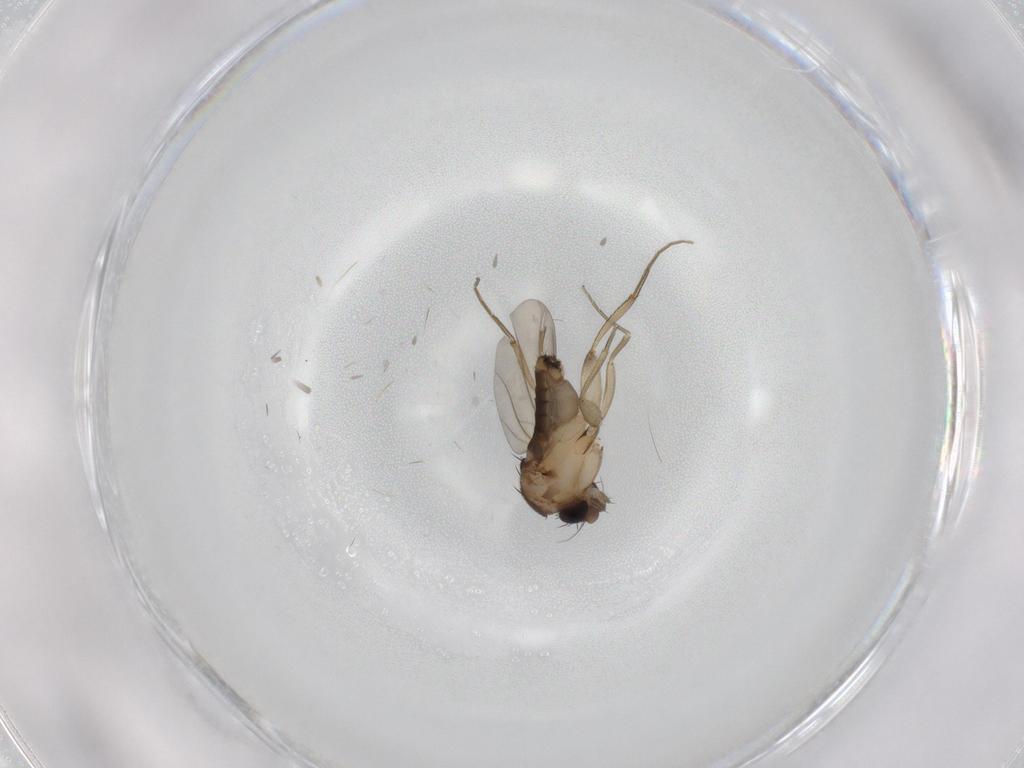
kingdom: Animalia
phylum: Arthropoda
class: Insecta
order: Diptera
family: Phoridae
